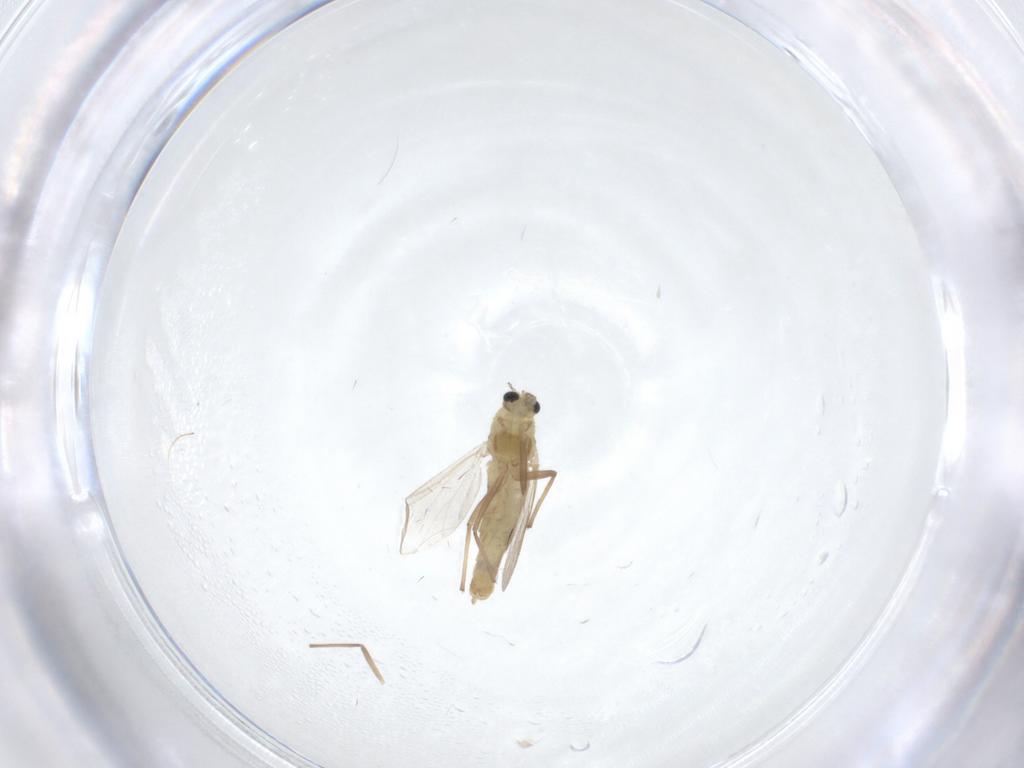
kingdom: Animalia
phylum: Arthropoda
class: Insecta
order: Diptera
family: Chironomidae
